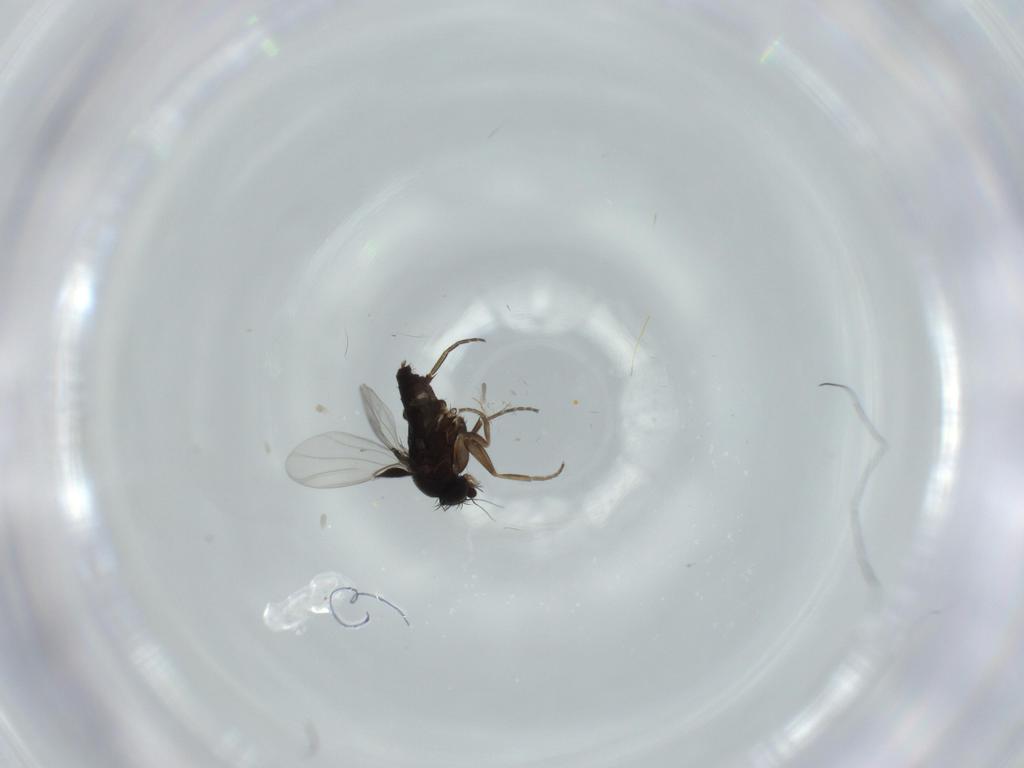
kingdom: Animalia
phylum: Arthropoda
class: Insecta
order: Diptera
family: Phoridae
